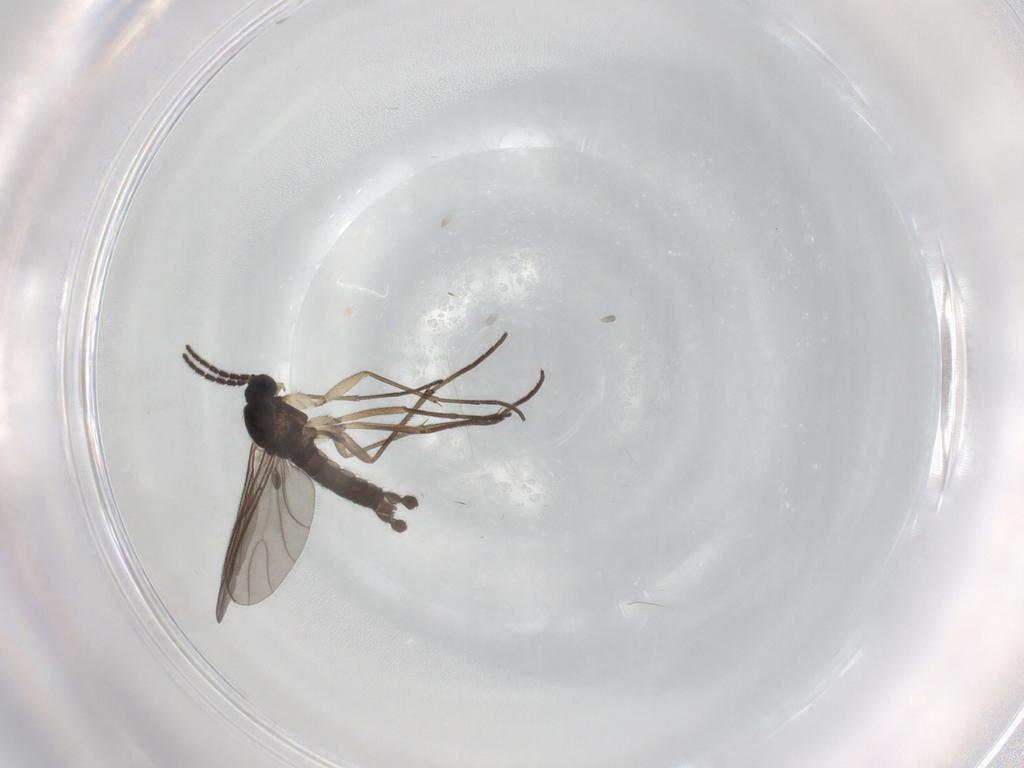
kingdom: Animalia
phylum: Arthropoda
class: Insecta
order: Diptera
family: Sciaridae
